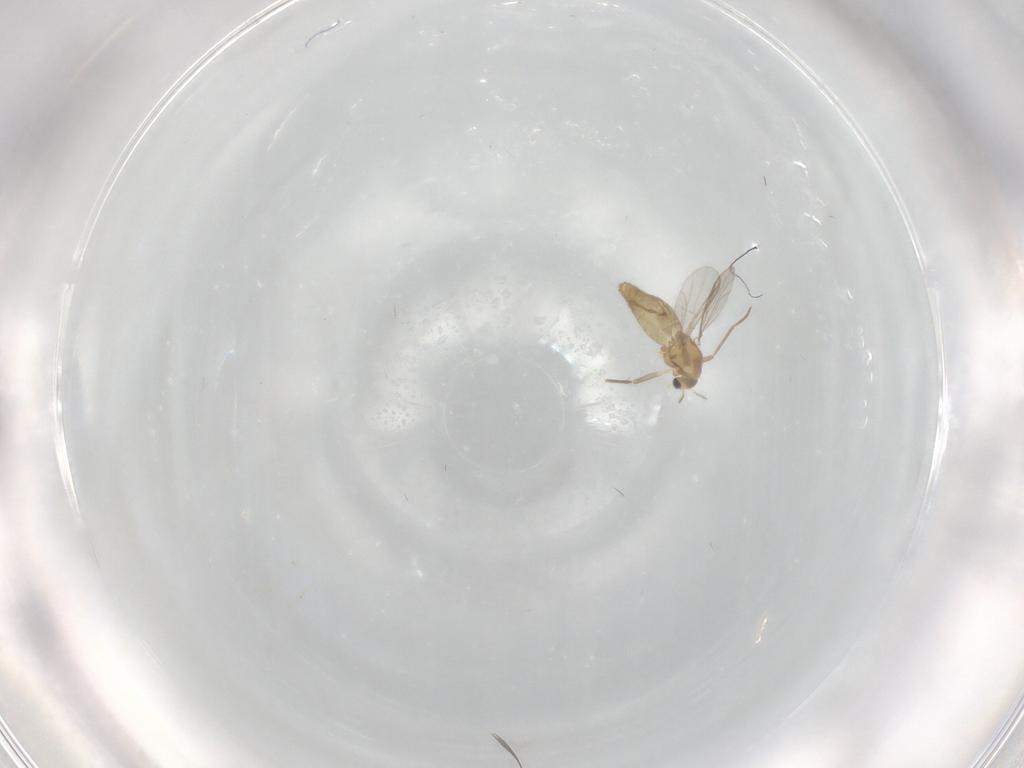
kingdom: Animalia
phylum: Arthropoda
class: Insecta
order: Diptera
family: Chironomidae
